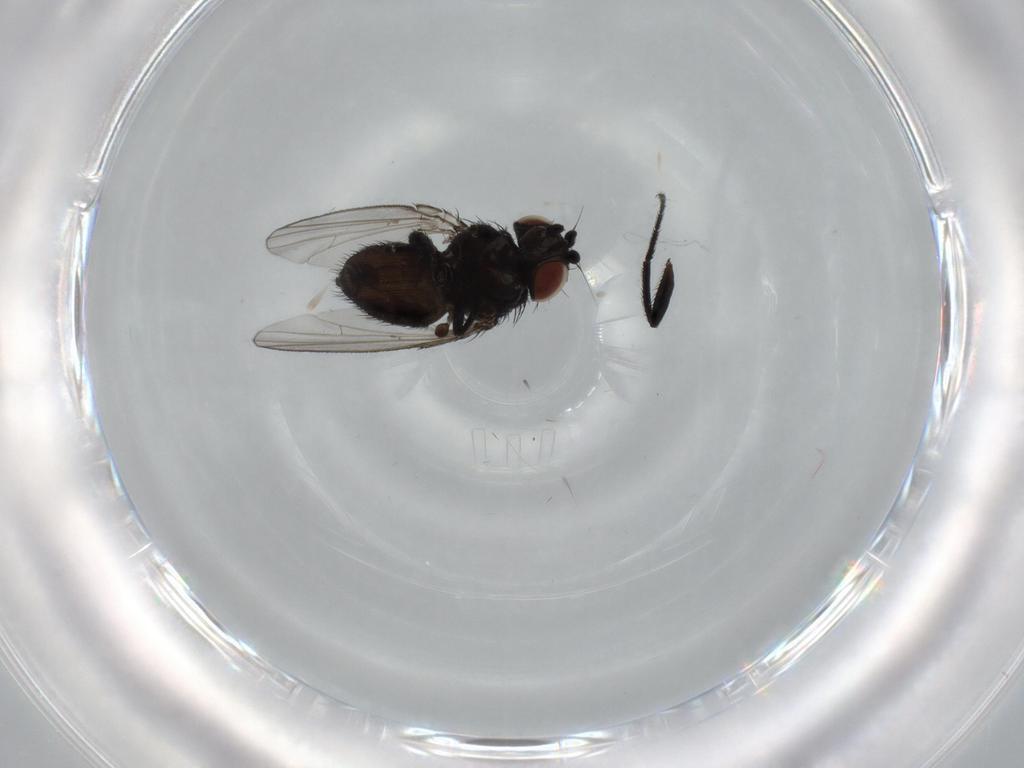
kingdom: Animalia
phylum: Arthropoda
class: Insecta
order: Diptera
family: Milichiidae
